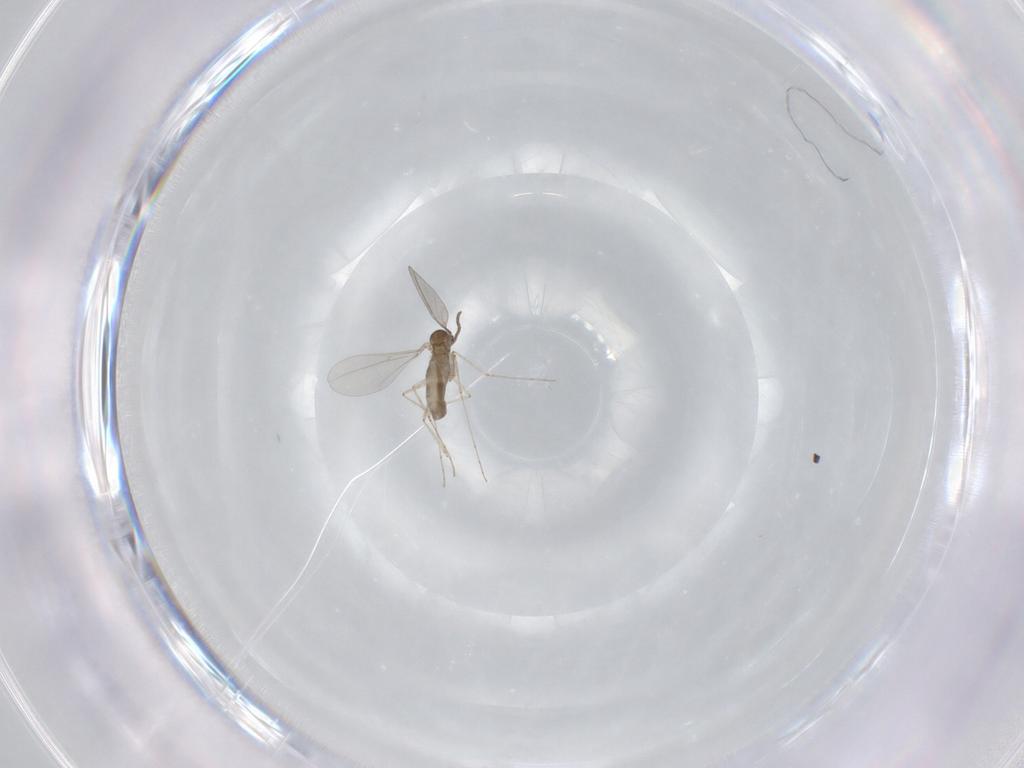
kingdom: Animalia
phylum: Arthropoda
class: Insecta
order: Diptera
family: Cecidomyiidae
